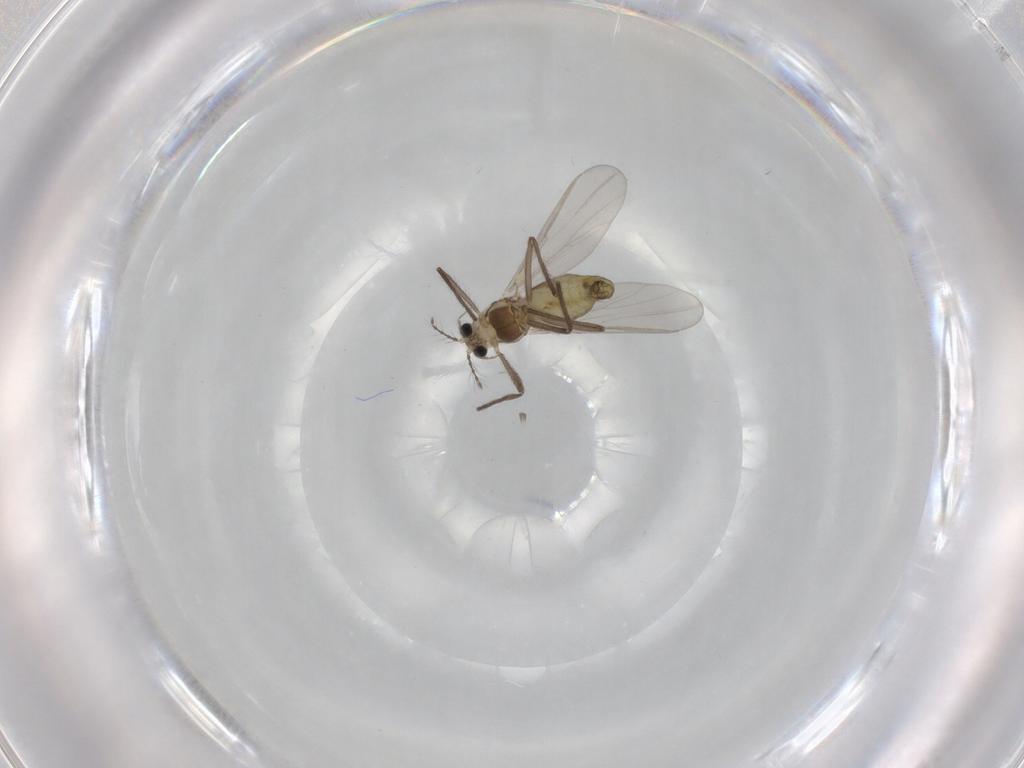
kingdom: Animalia
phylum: Arthropoda
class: Insecta
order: Diptera
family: Chironomidae
